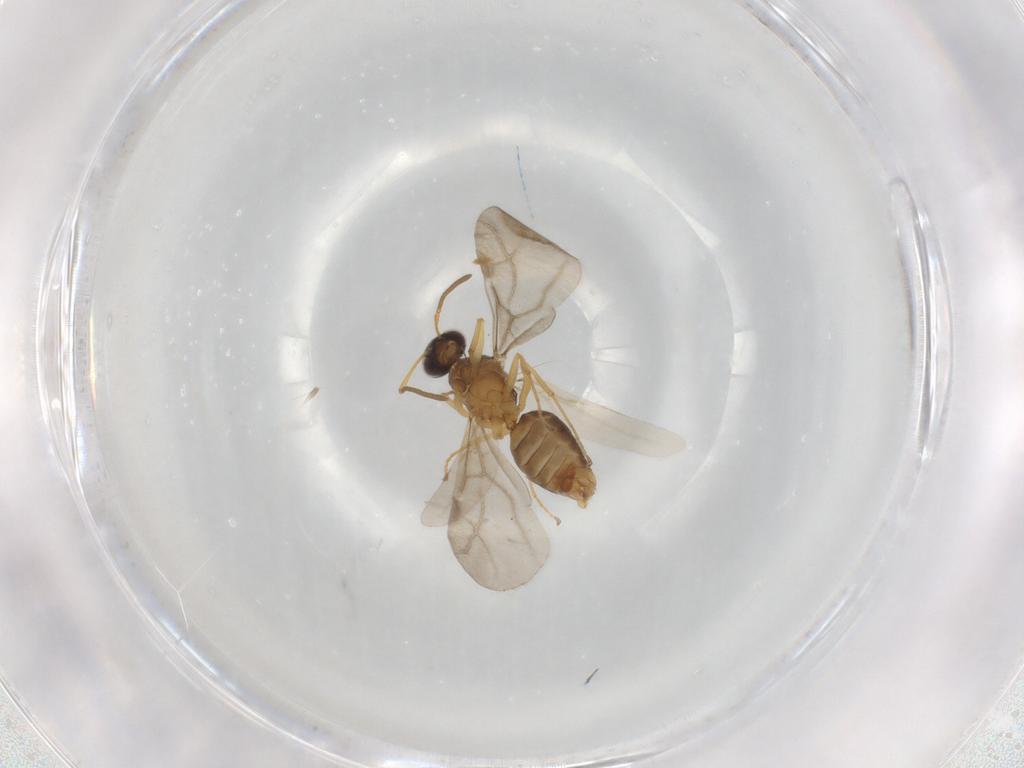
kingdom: Animalia
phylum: Arthropoda
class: Insecta
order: Hymenoptera
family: Formicidae
